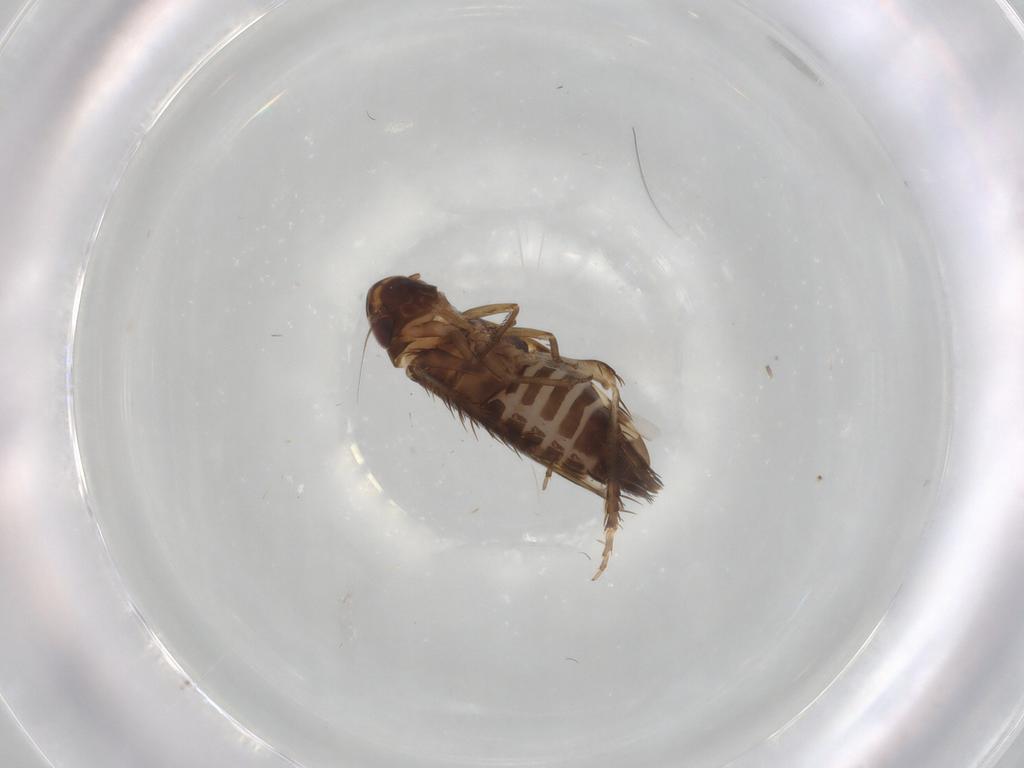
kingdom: Animalia
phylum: Arthropoda
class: Insecta
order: Hemiptera
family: Cicadellidae
